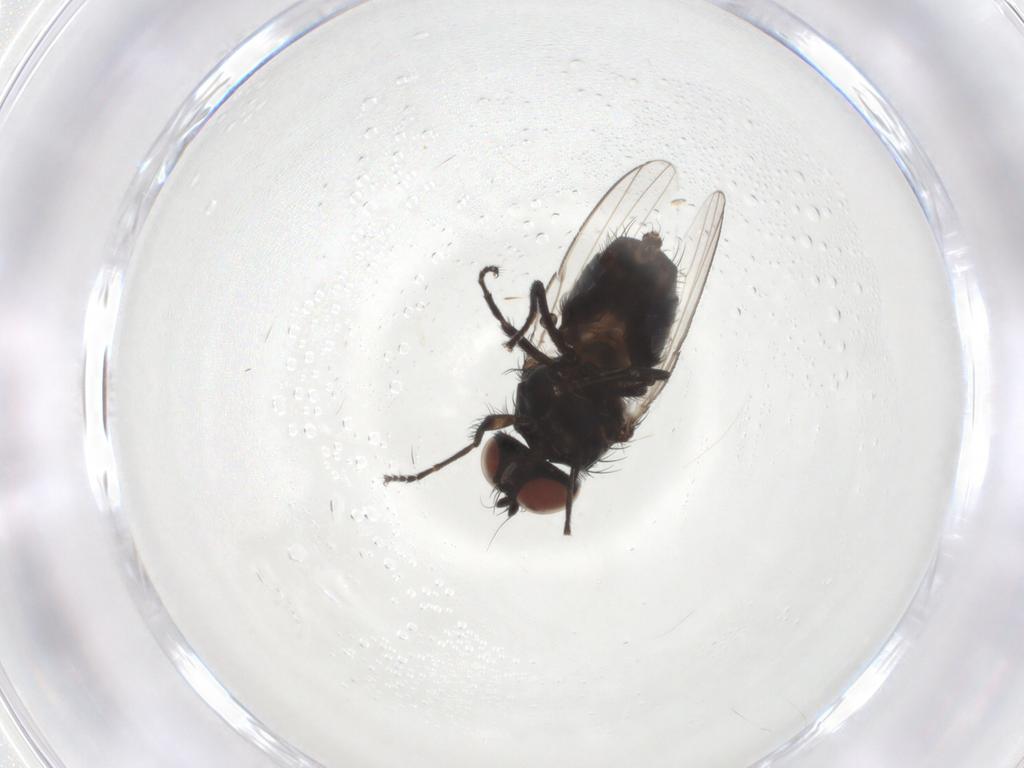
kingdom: Animalia
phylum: Arthropoda
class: Insecta
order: Diptera
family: Milichiidae
